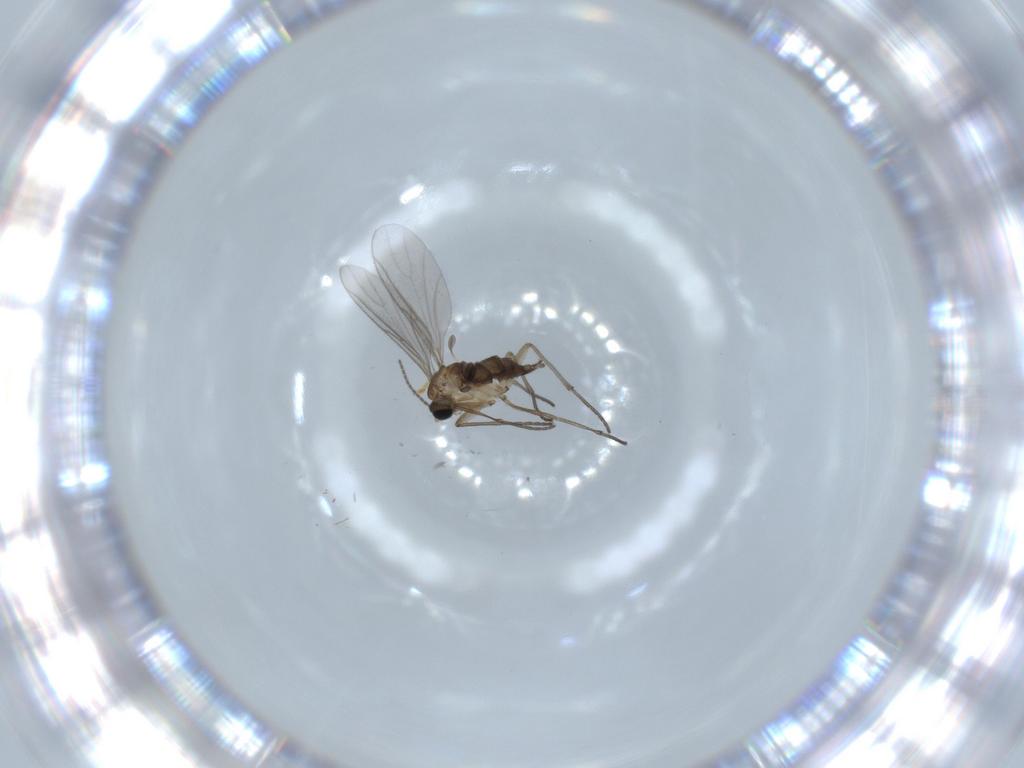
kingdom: Animalia
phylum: Arthropoda
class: Insecta
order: Diptera
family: Sciaridae
